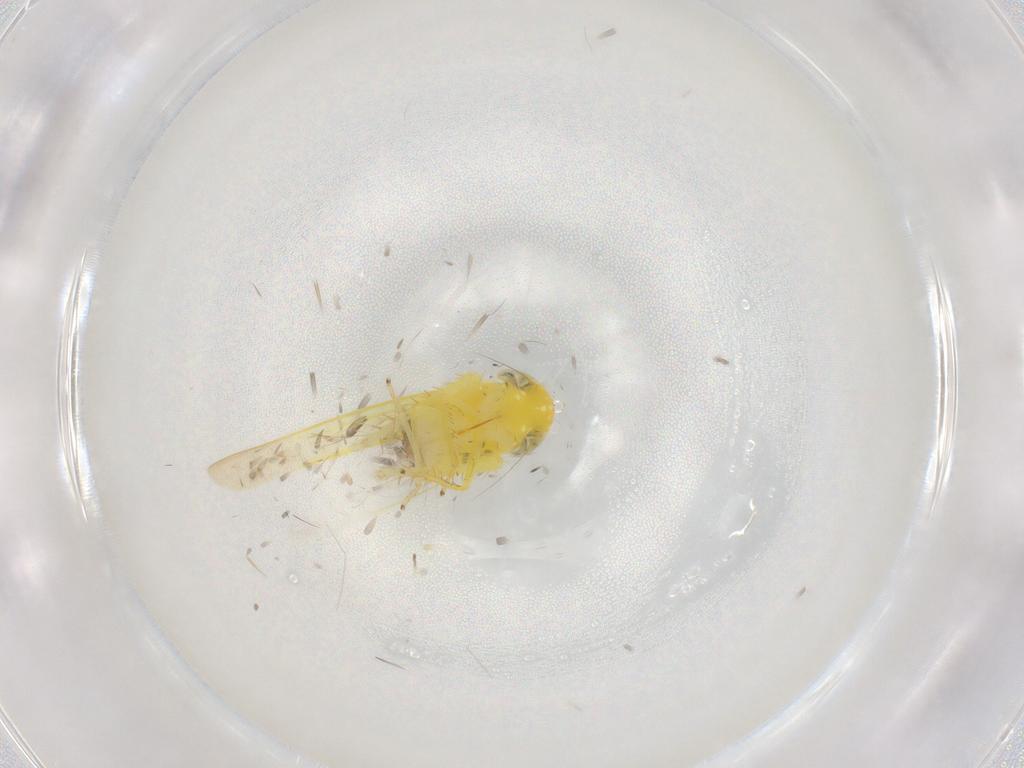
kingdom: Animalia
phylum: Arthropoda
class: Insecta
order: Hemiptera
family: Cicadellidae
